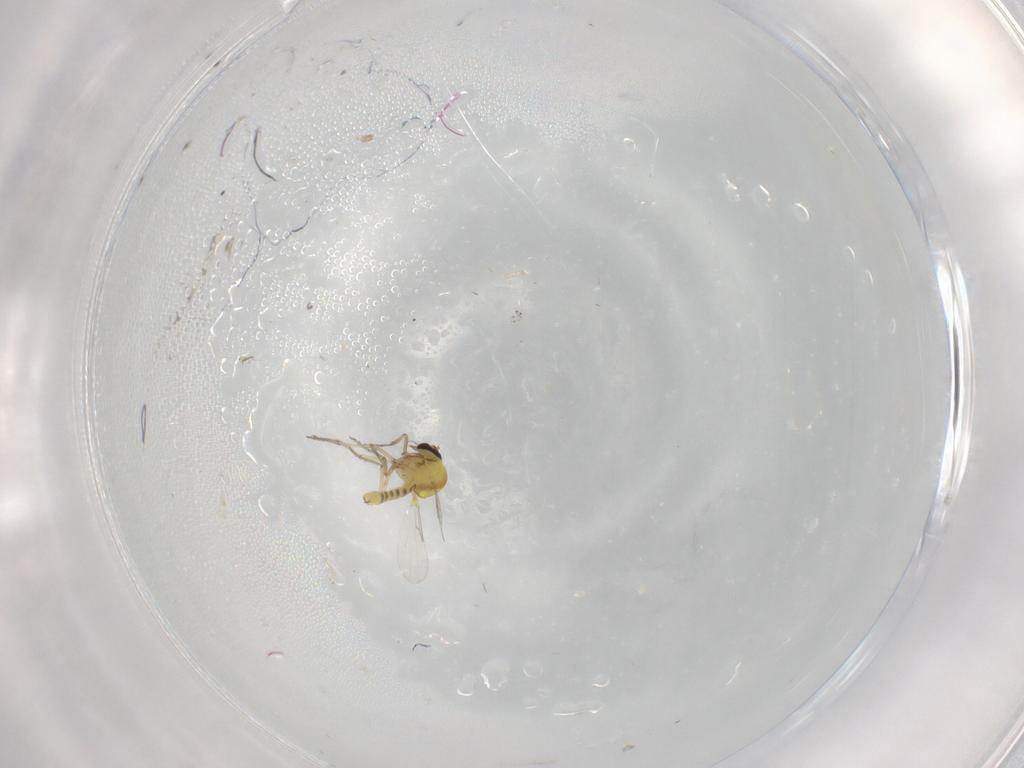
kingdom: Animalia
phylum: Arthropoda
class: Insecta
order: Diptera
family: Ceratopogonidae
